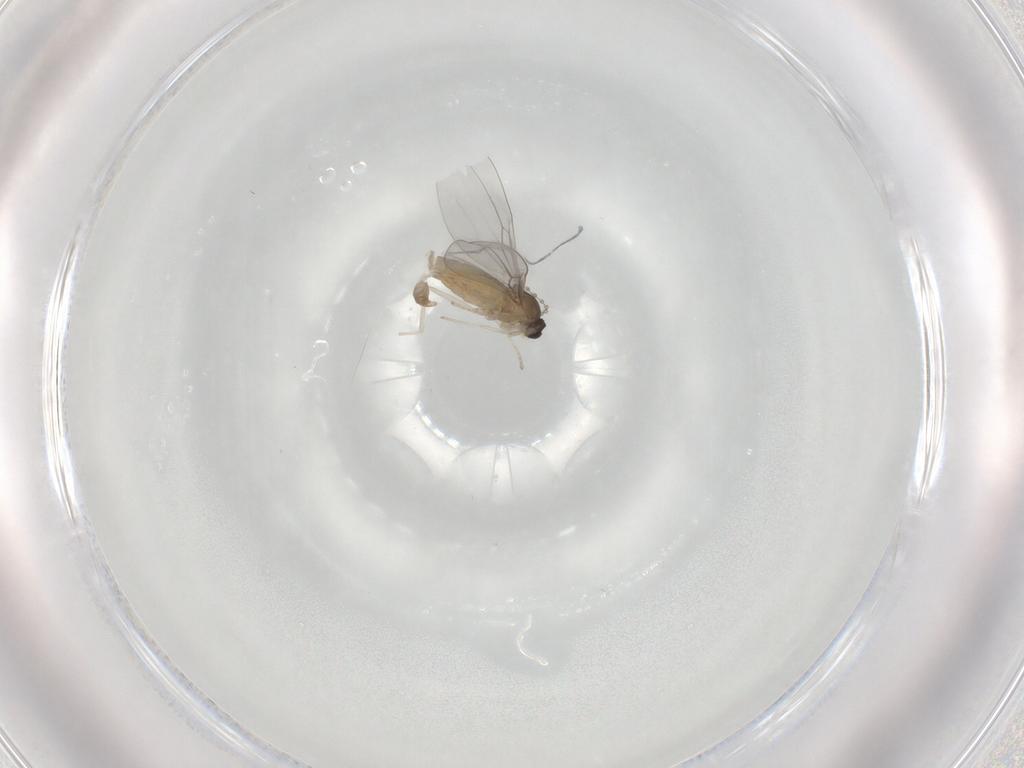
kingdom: Animalia
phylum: Arthropoda
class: Insecta
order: Diptera
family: Cecidomyiidae
